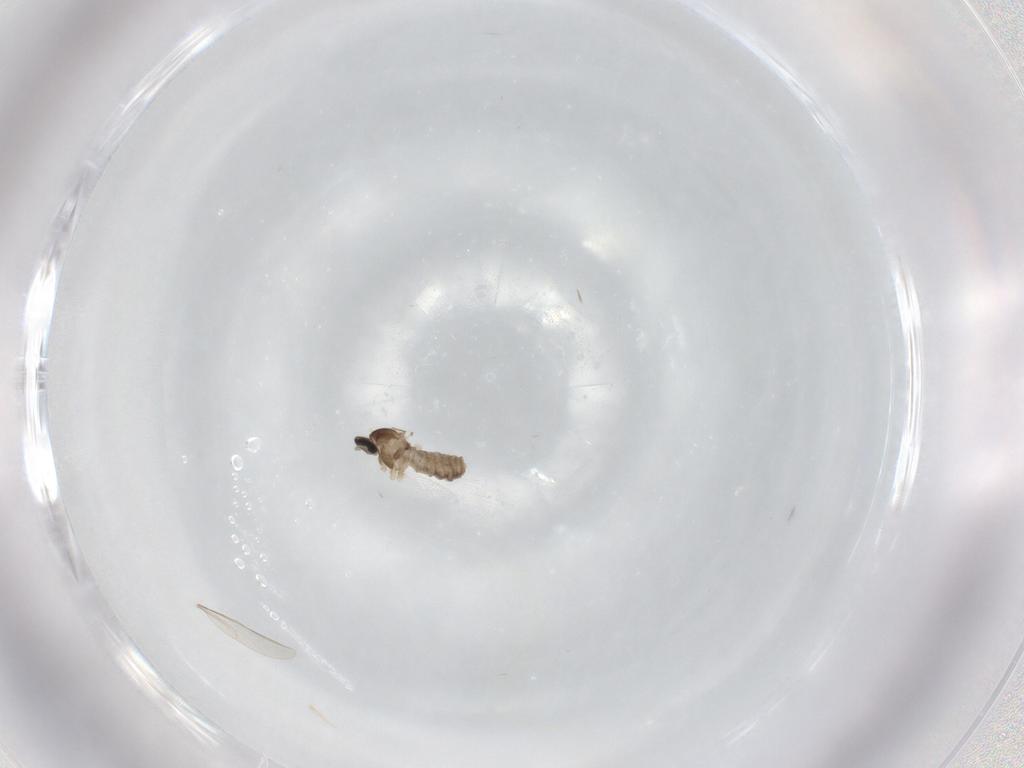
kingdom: Animalia
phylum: Arthropoda
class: Insecta
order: Diptera
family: Cecidomyiidae
